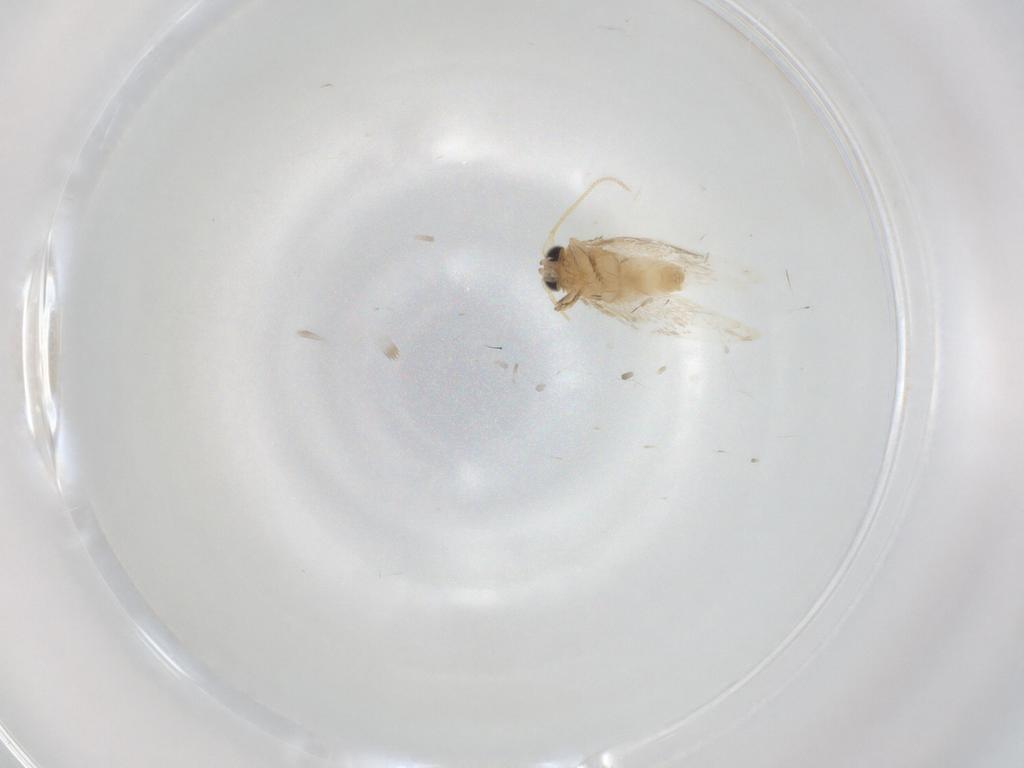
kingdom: Animalia
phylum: Arthropoda
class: Insecta
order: Lepidoptera
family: Nepticulidae
